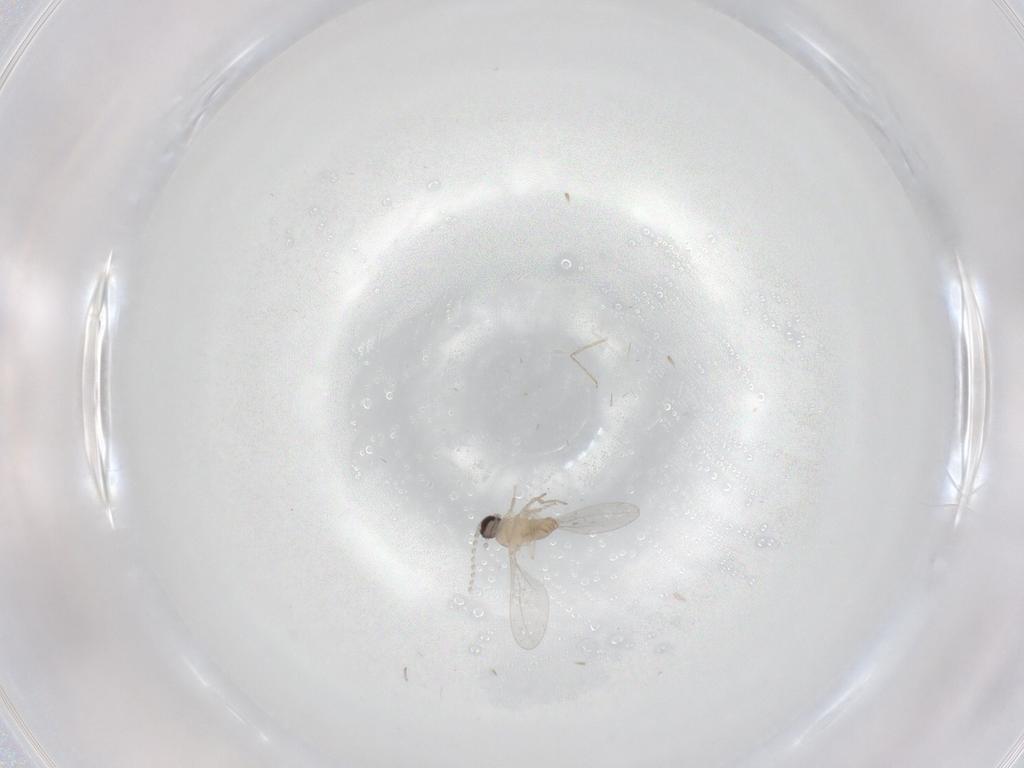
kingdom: Animalia
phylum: Arthropoda
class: Insecta
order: Diptera
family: Cecidomyiidae
